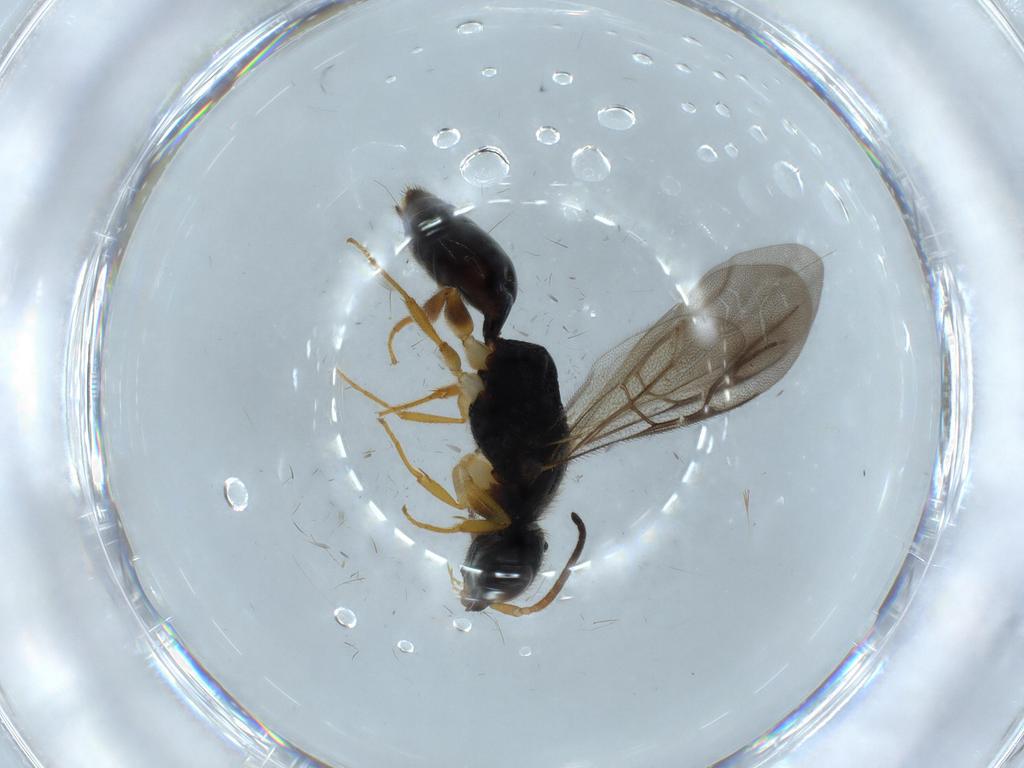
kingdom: Animalia
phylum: Arthropoda
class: Insecta
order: Hymenoptera
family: Bethylidae
